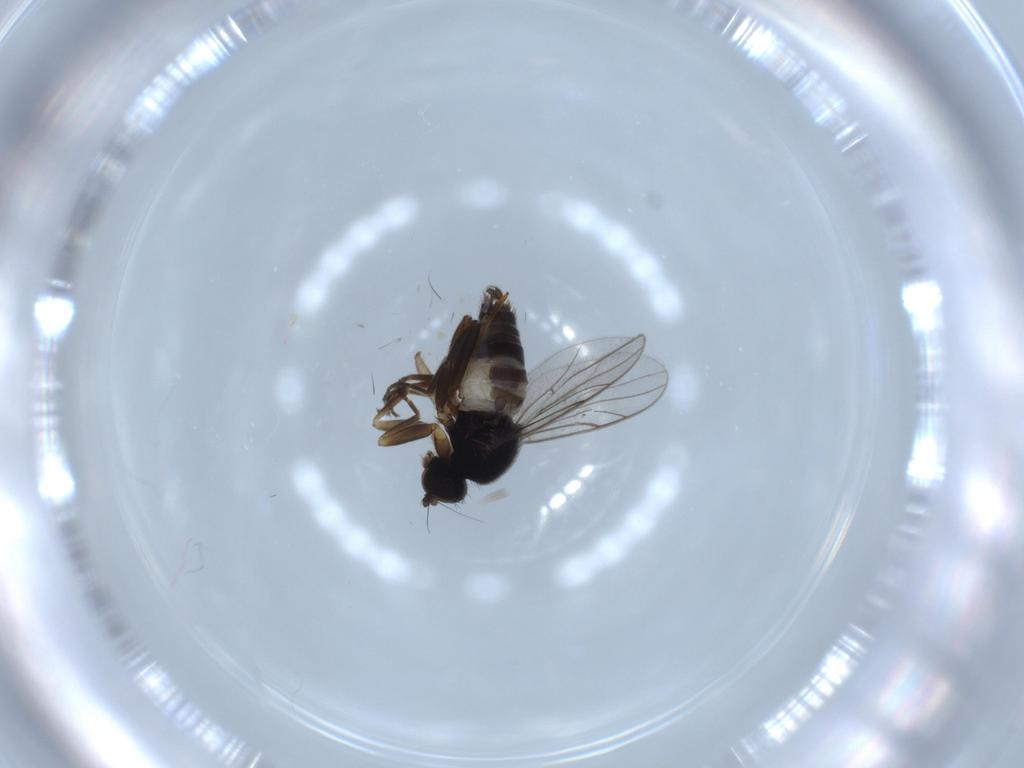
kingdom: Animalia
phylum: Arthropoda
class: Insecta
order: Diptera
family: Hybotidae
